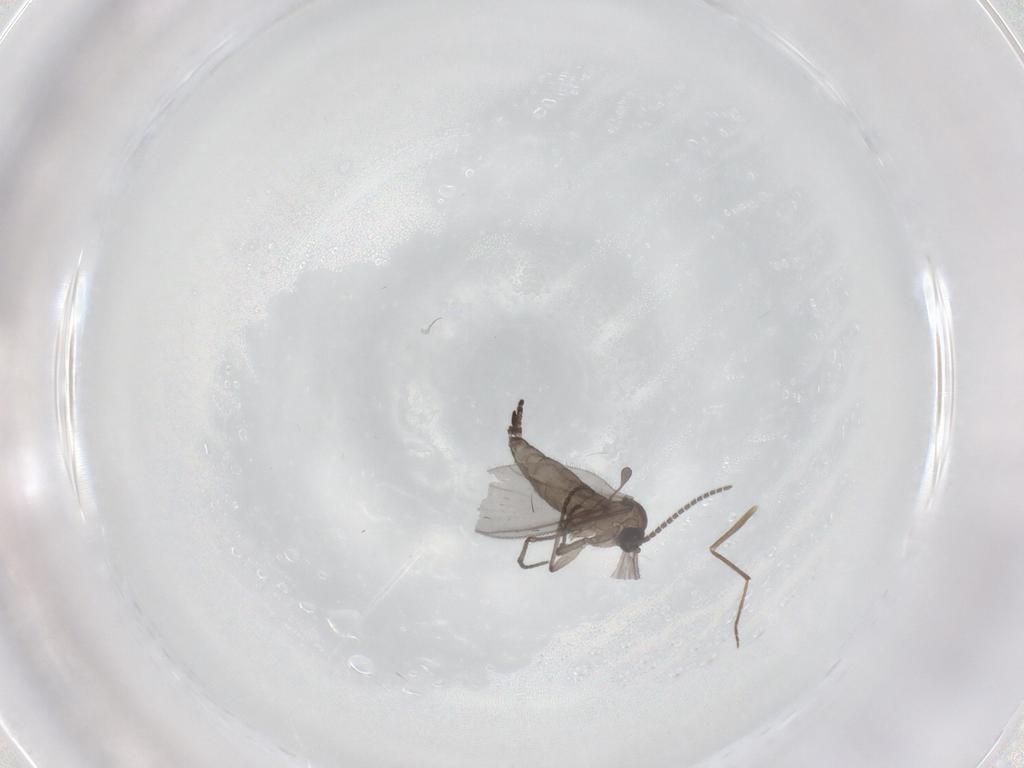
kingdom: Animalia
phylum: Arthropoda
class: Insecta
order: Diptera
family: Sciaridae
